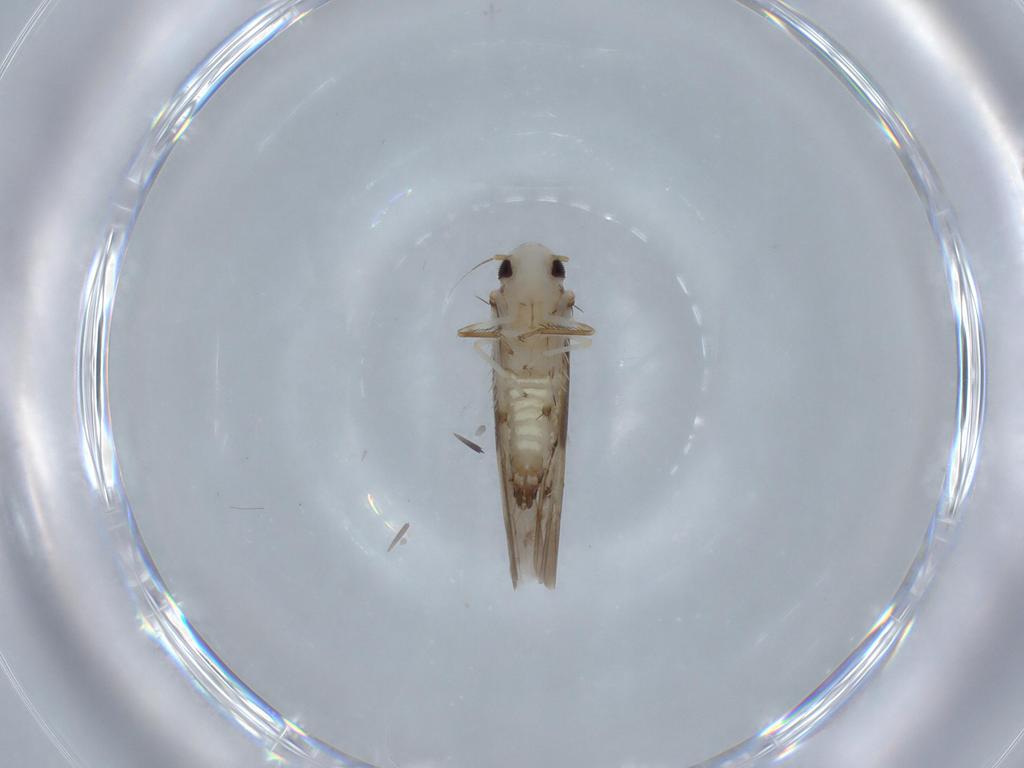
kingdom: Animalia
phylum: Arthropoda
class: Insecta
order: Hemiptera
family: Cicadellidae
